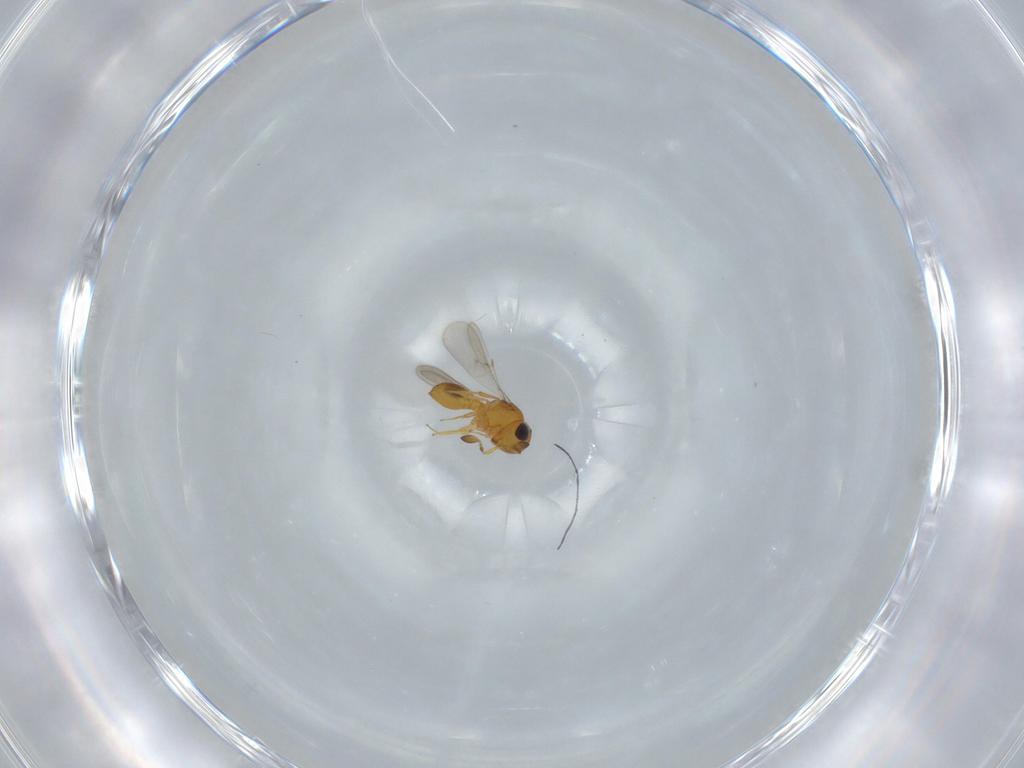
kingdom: Animalia
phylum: Arthropoda
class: Insecta
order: Hymenoptera
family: Scelionidae
